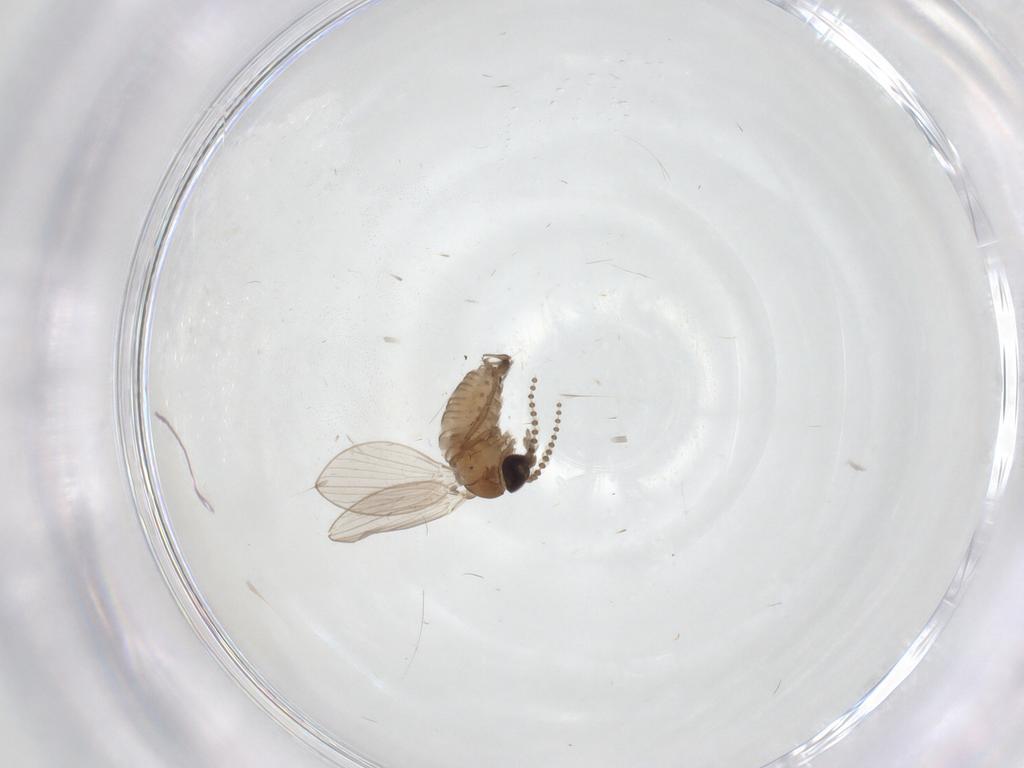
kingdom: Animalia
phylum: Arthropoda
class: Insecta
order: Diptera
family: Psychodidae
